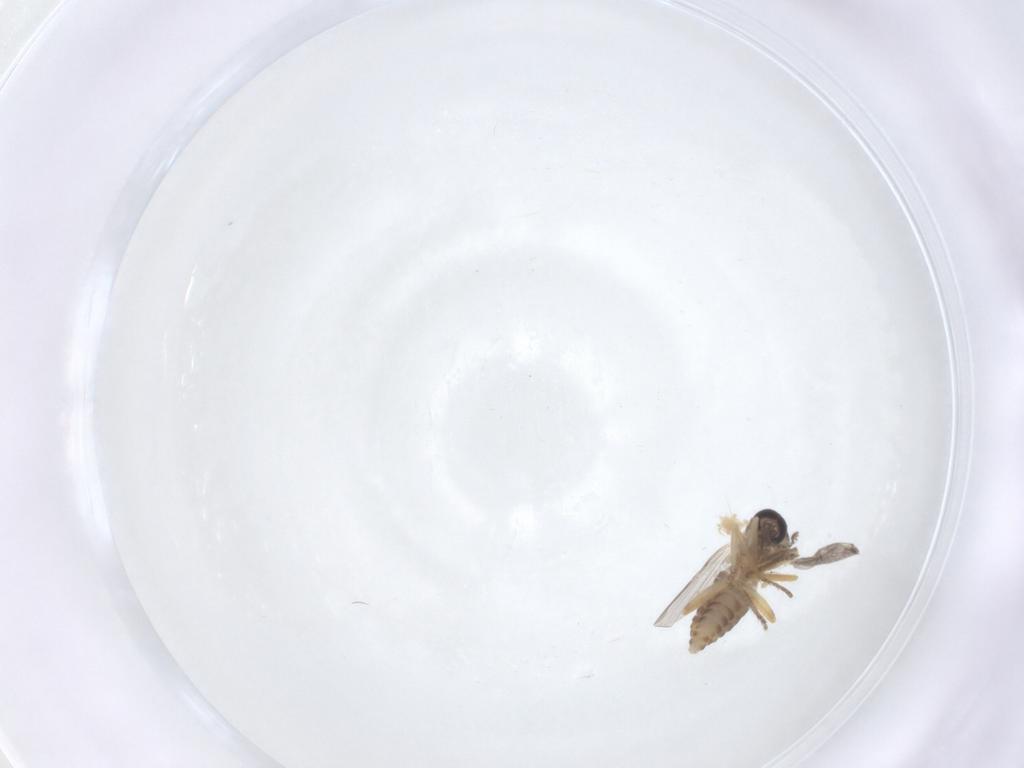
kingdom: Animalia
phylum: Arthropoda
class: Insecta
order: Diptera
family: Ceratopogonidae
